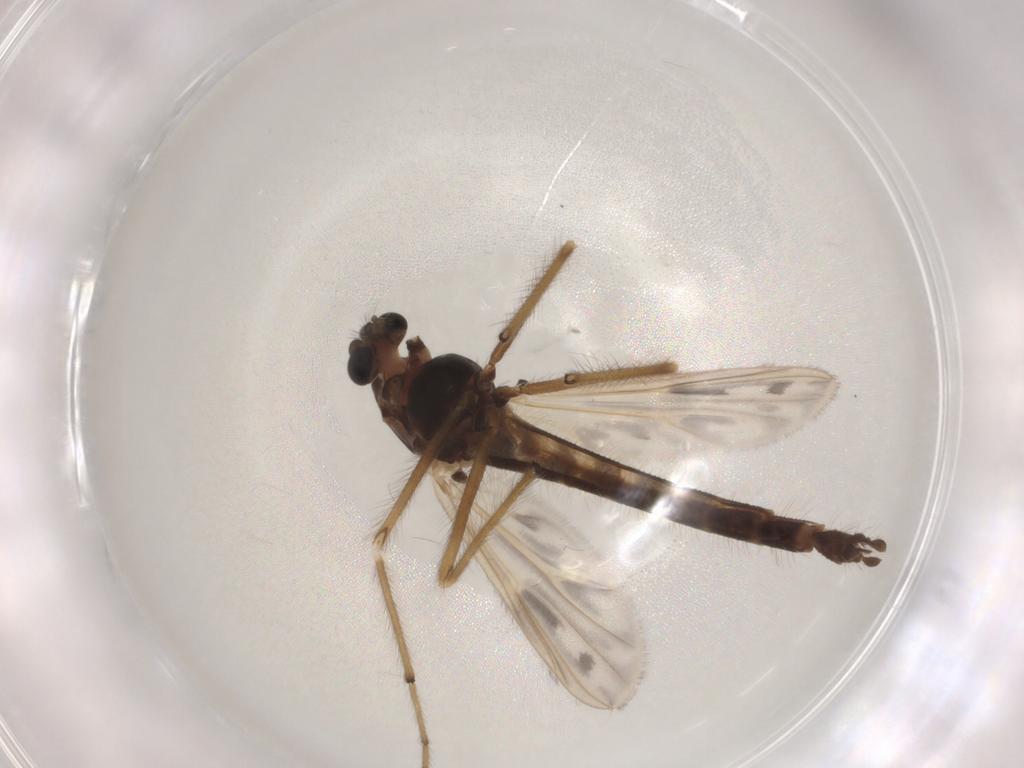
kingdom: Animalia
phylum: Arthropoda
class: Insecta
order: Diptera
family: Chironomidae
